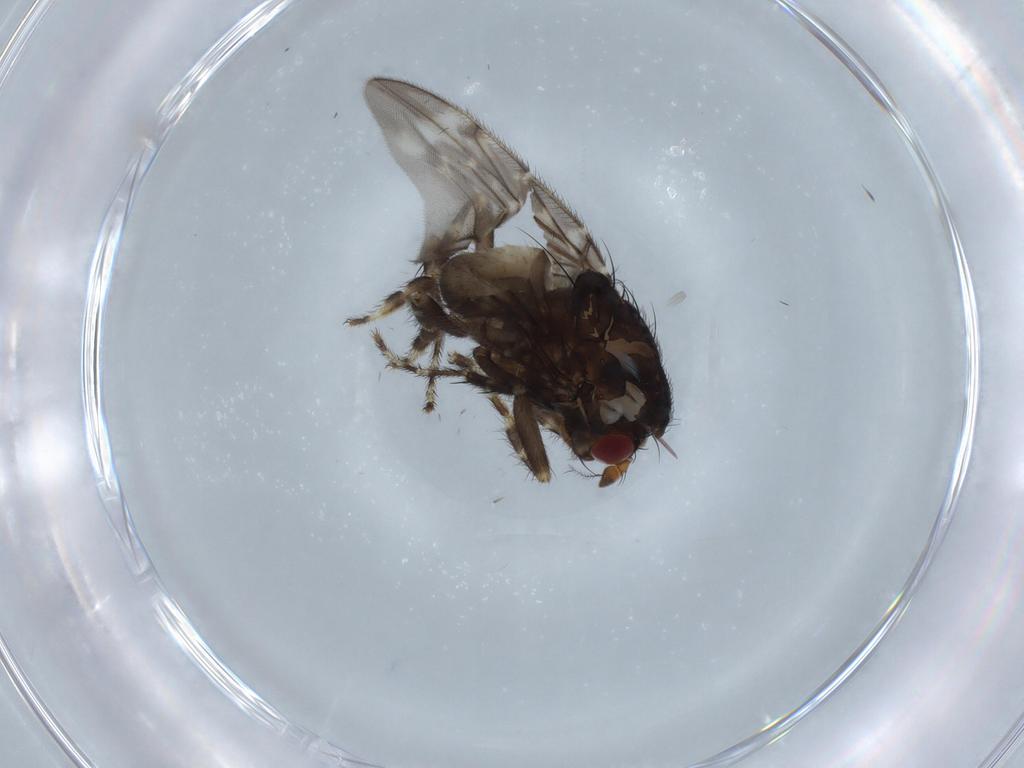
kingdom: Animalia
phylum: Arthropoda
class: Insecta
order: Diptera
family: Sphaeroceridae
